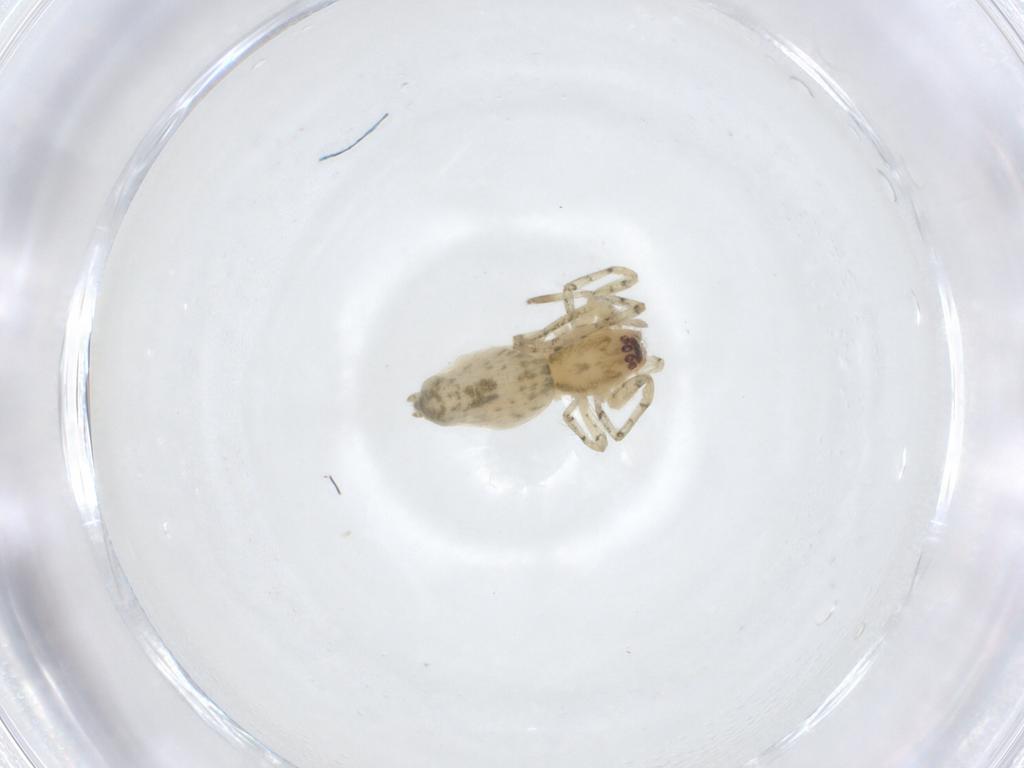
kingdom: Animalia
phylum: Arthropoda
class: Arachnida
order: Araneae
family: Anyphaenidae
